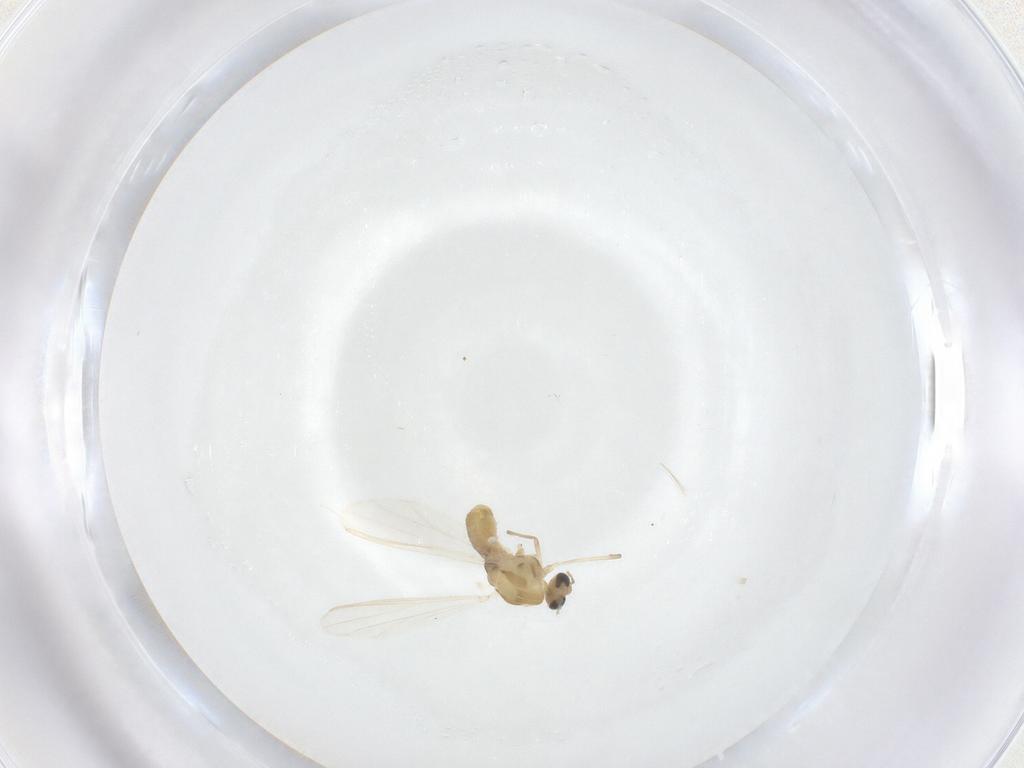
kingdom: Animalia
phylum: Arthropoda
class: Insecta
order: Diptera
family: Chironomidae
